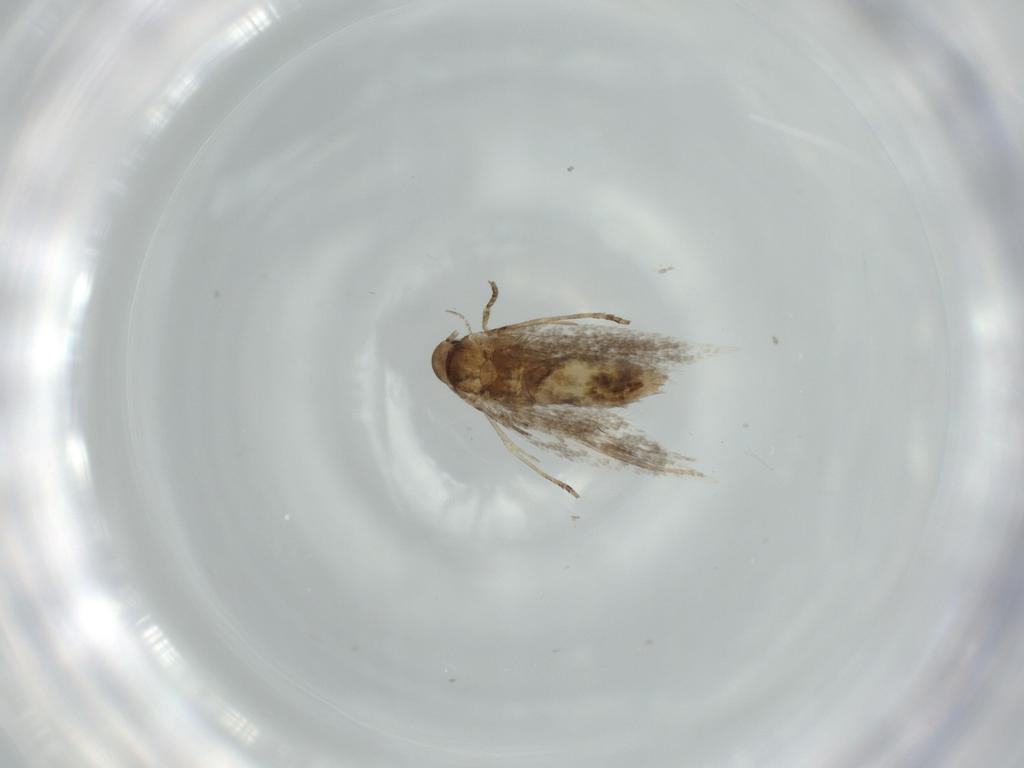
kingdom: Animalia
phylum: Arthropoda
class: Insecta
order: Lepidoptera
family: Elachistidae
